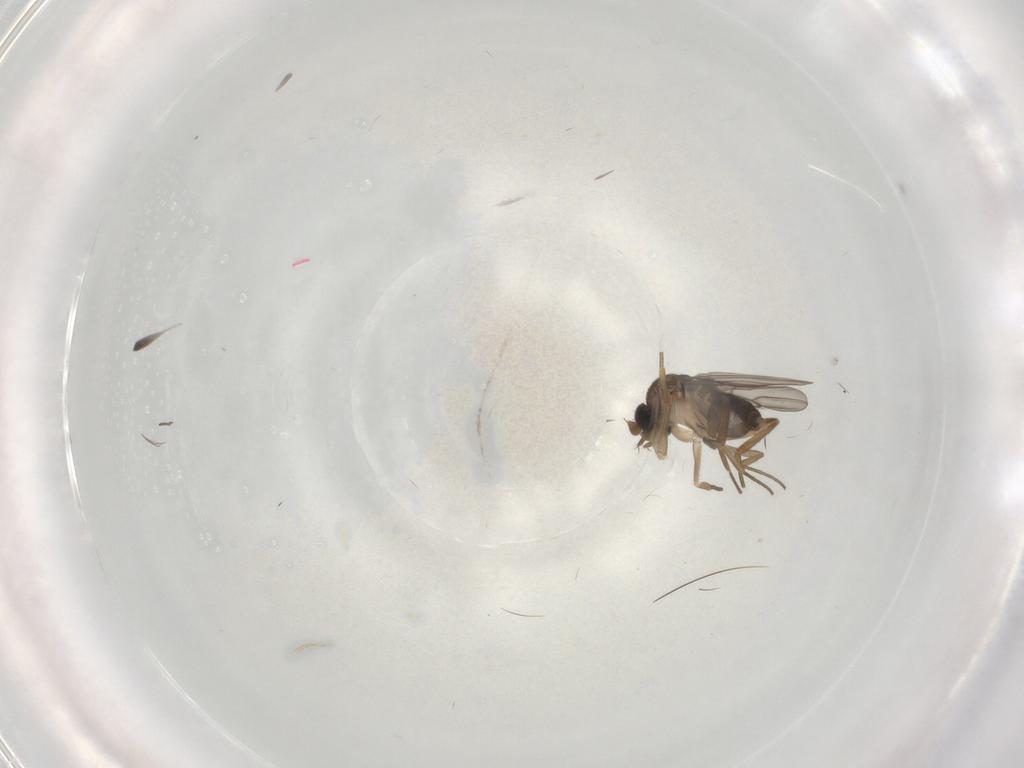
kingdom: Animalia
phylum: Arthropoda
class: Insecta
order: Diptera
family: Phoridae
